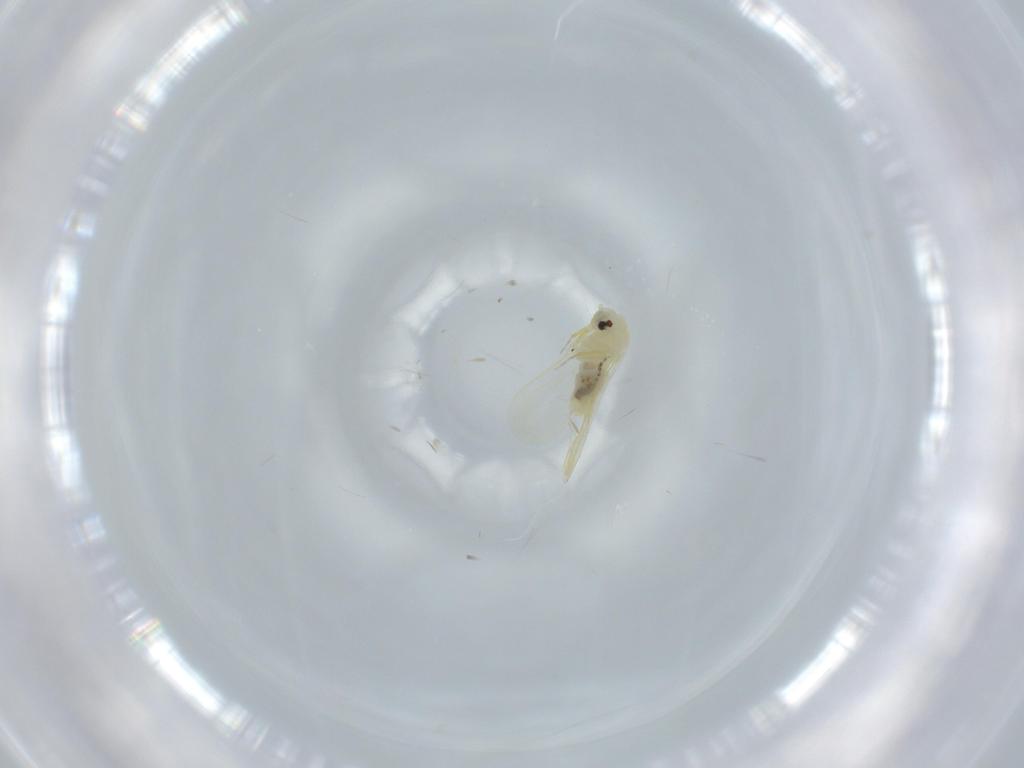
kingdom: Animalia
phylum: Arthropoda
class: Insecta
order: Hemiptera
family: Aleyrodidae
